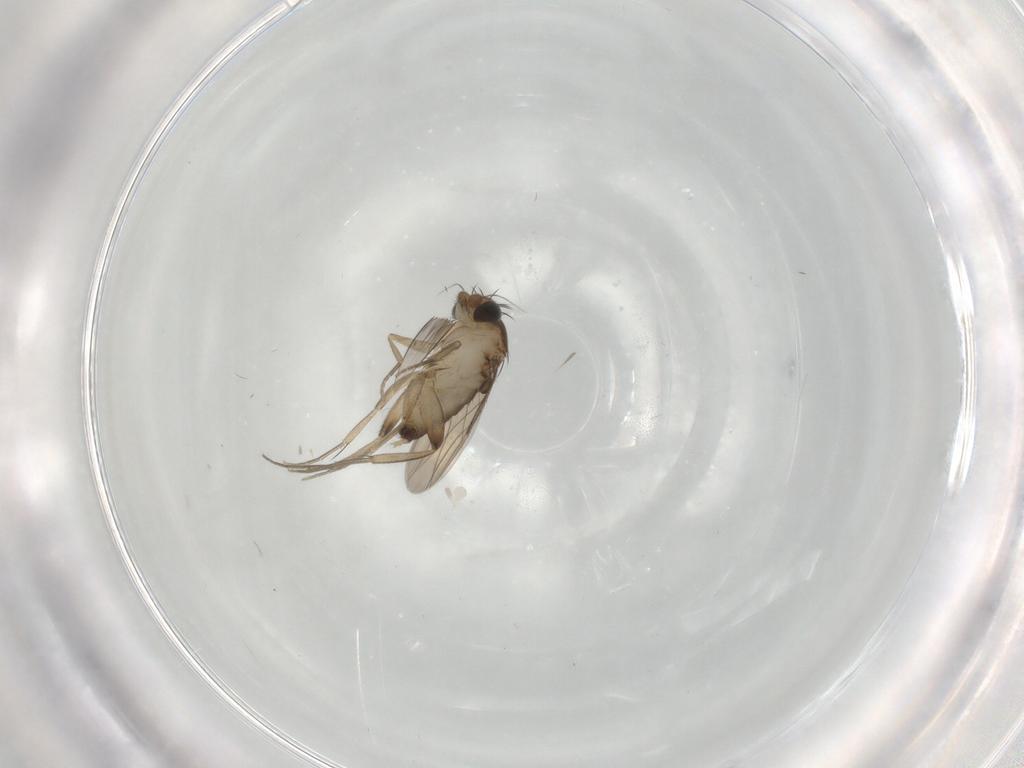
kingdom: Animalia
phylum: Arthropoda
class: Insecta
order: Diptera
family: Phoridae
